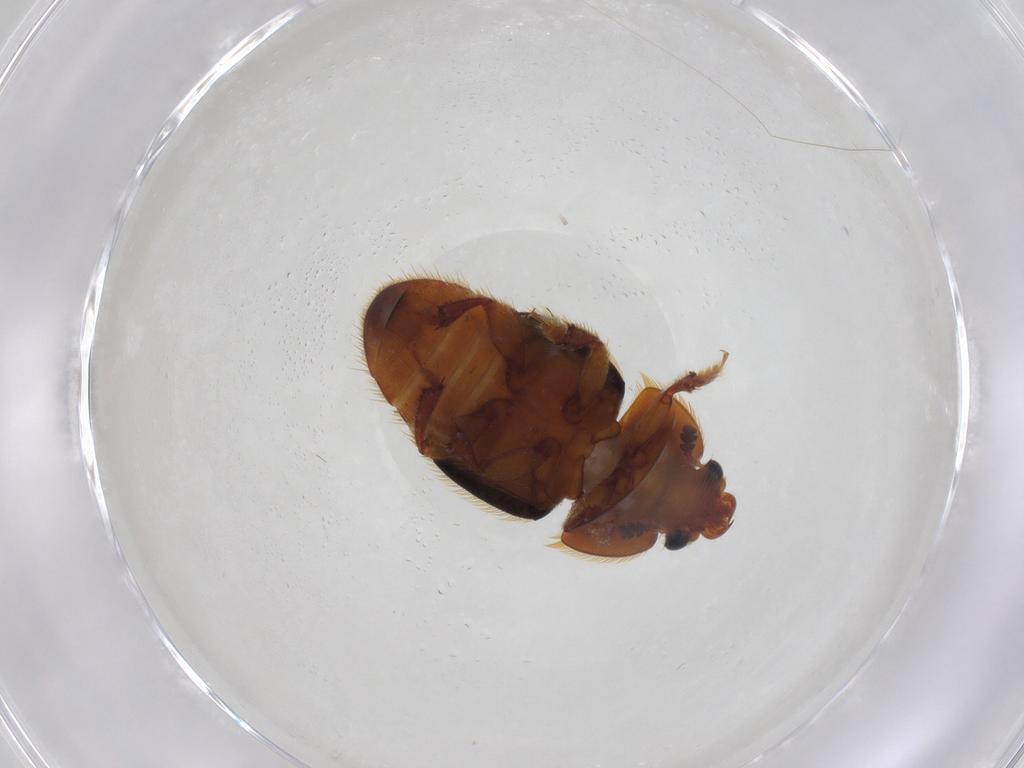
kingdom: Animalia
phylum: Arthropoda
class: Insecta
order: Coleoptera
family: Nitidulidae
